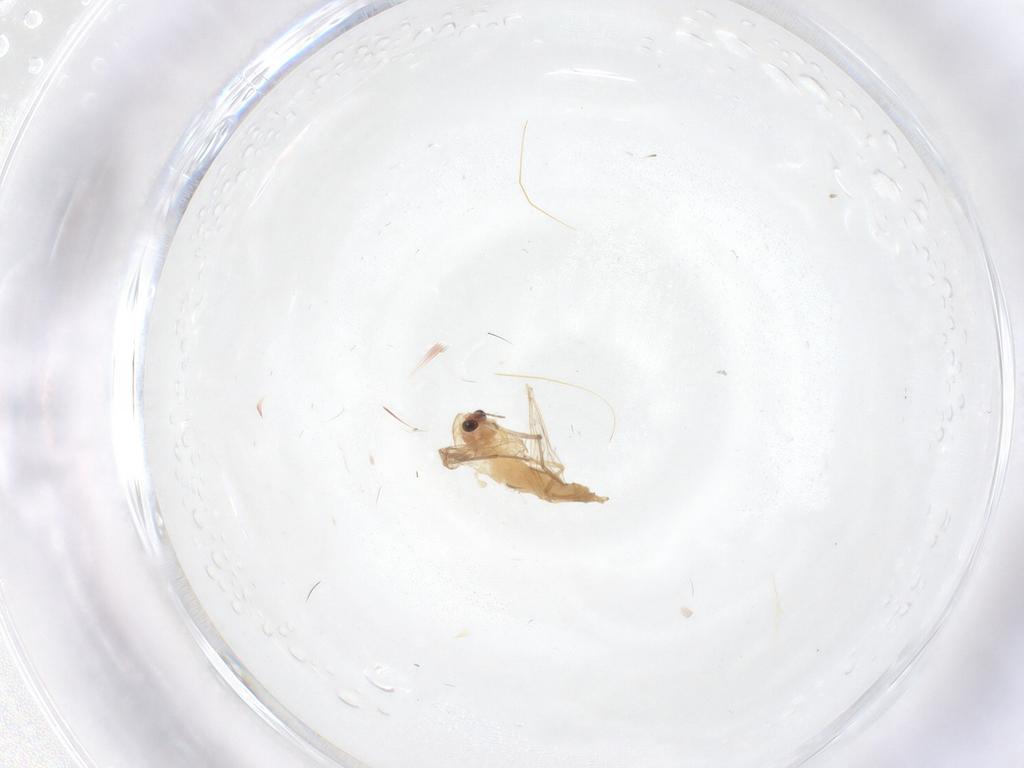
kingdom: Animalia
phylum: Arthropoda
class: Insecta
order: Diptera
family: Chironomidae
